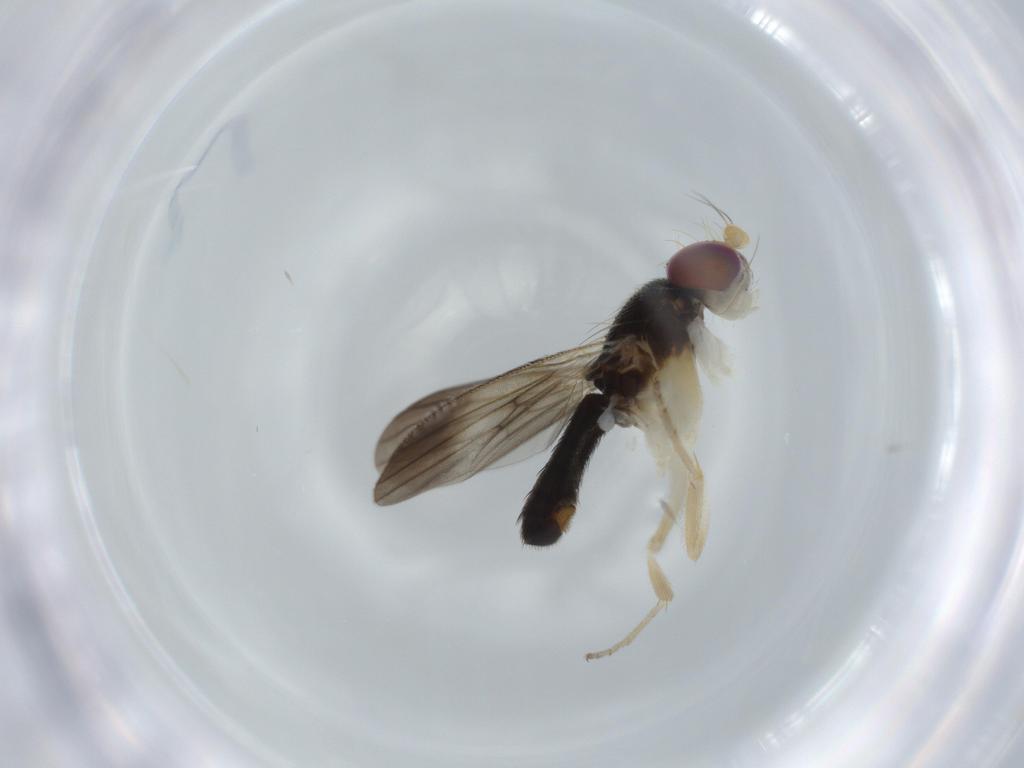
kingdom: Animalia
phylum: Arthropoda
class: Insecta
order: Diptera
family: Clusiidae
